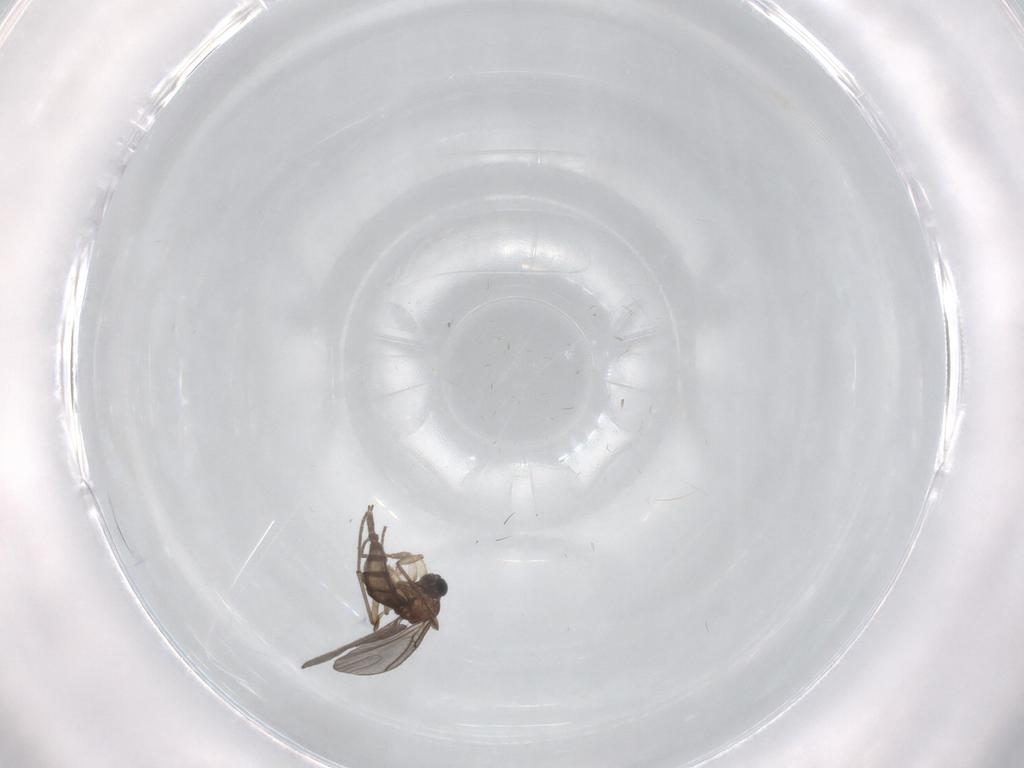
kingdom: Animalia
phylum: Arthropoda
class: Insecta
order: Diptera
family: Sciaridae
